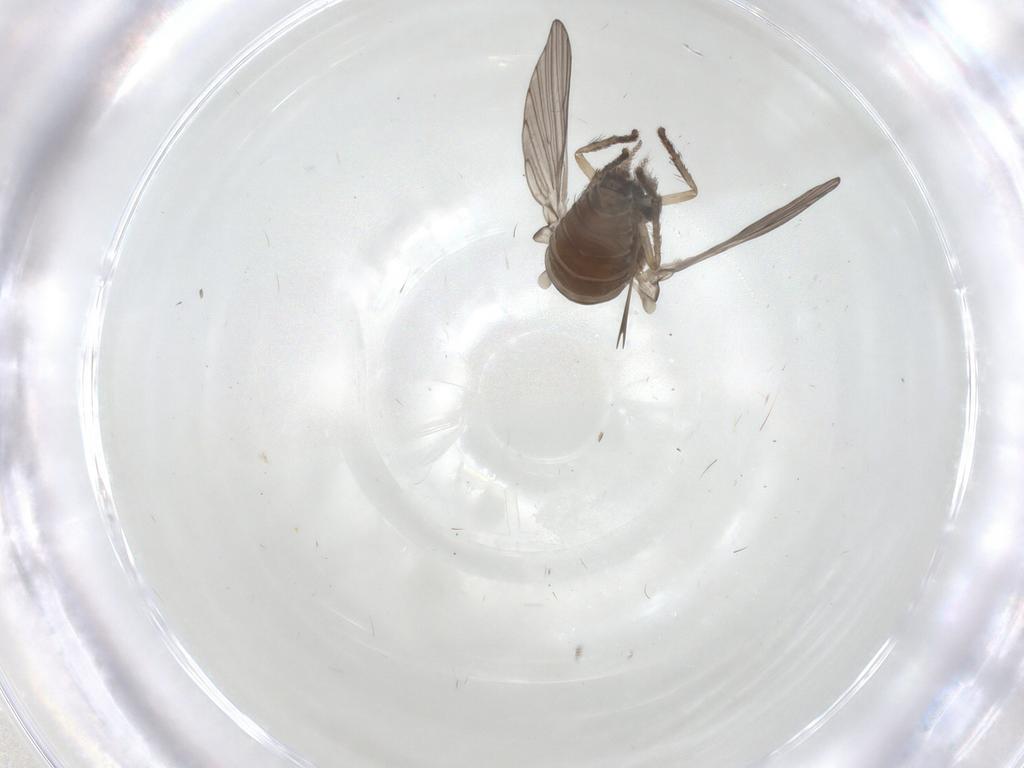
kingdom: Animalia
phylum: Arthropoda
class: Insecta
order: Diptera
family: Psychodidae
